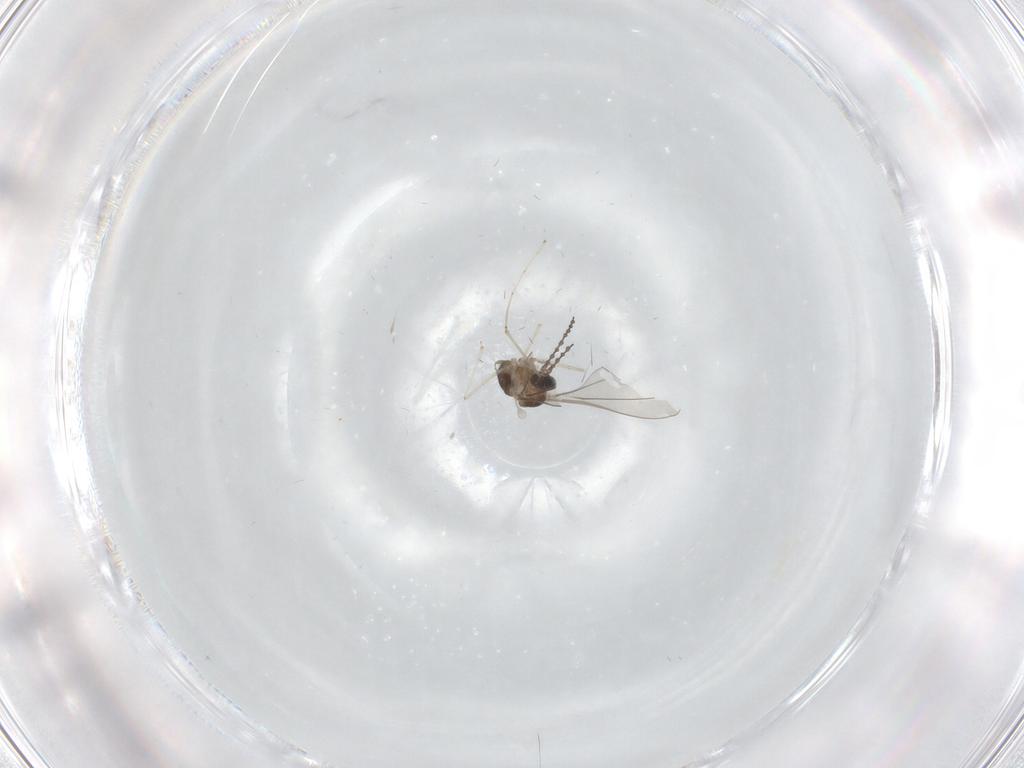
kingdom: Animalia
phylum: Arthropoda
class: Insecta
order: Diptera
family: Cecidomyiidae
